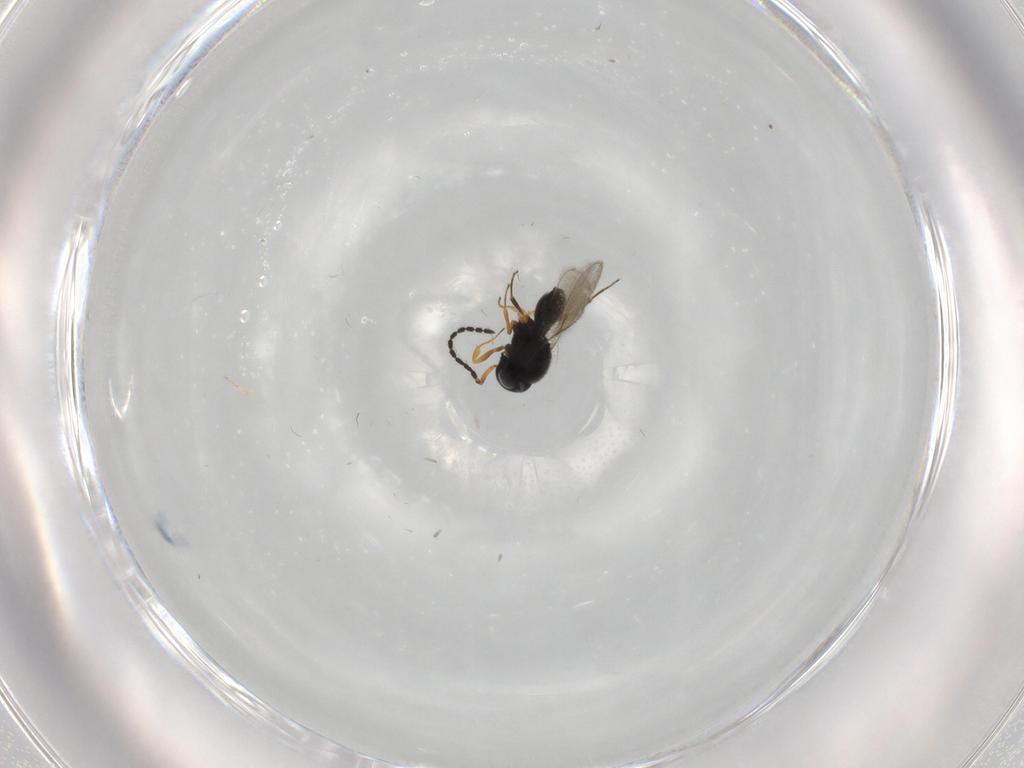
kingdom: Animalia
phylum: Arthropoda
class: Insecta
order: Hymenoptera
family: Scelionidae
